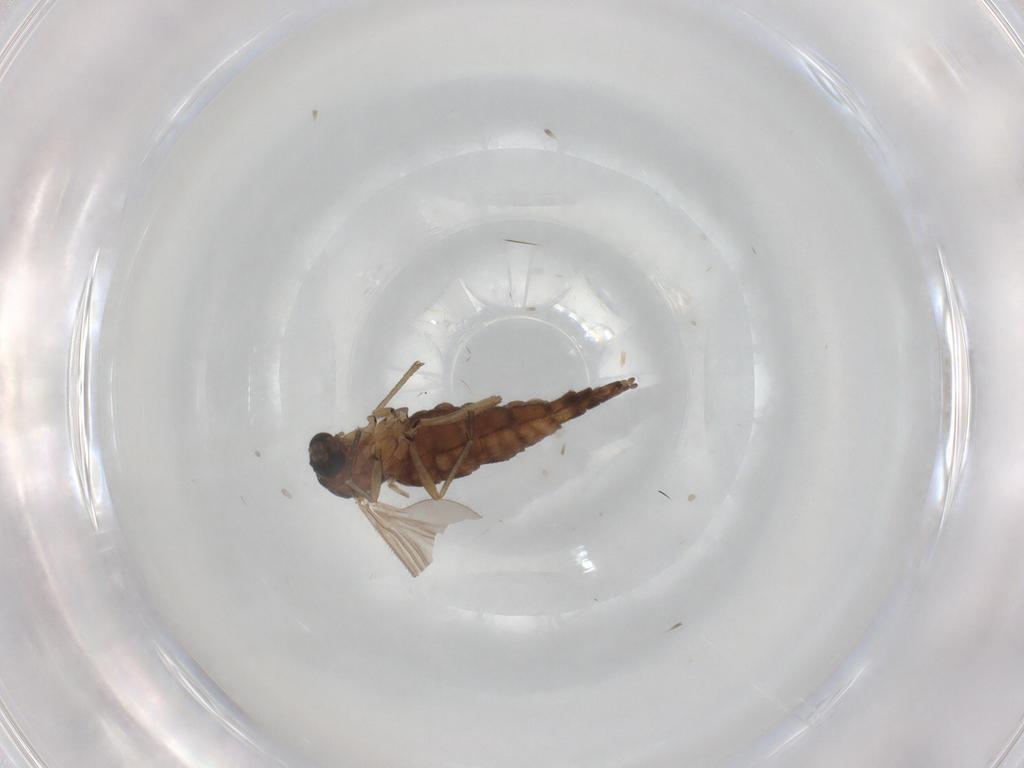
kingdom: Animalia
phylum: Arthropoda
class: Insecta
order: Diptera
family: Sciaridae
